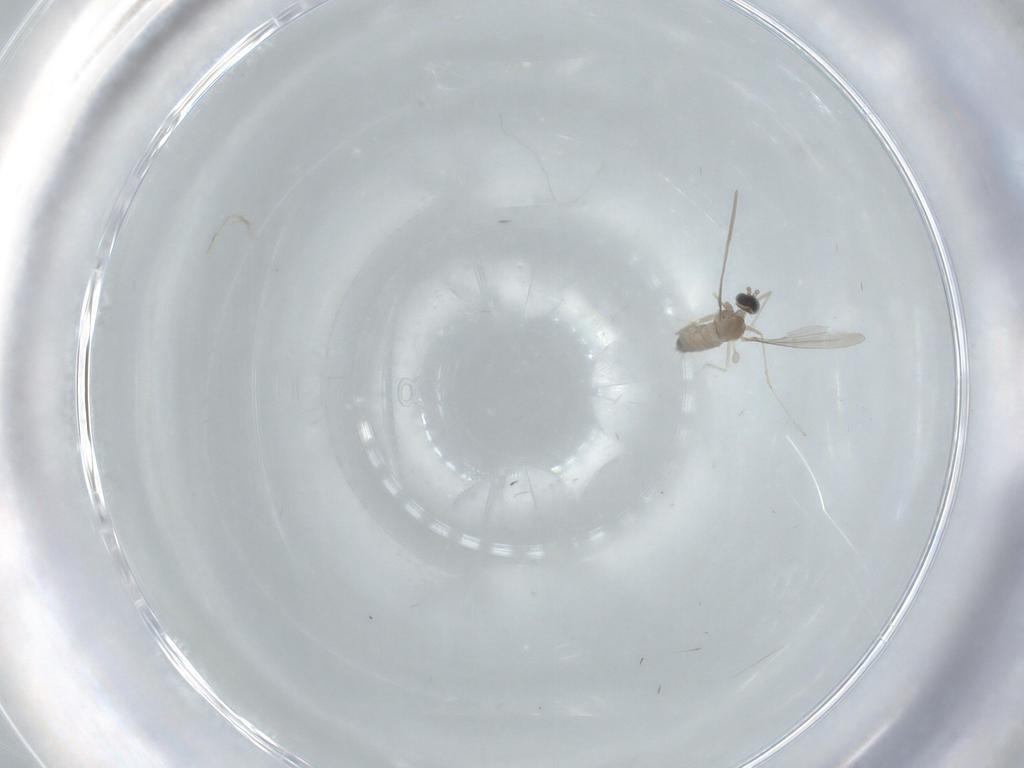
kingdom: Animalia
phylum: Arthropoda
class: Insecta
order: Diptera
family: Cecidomyiidae
